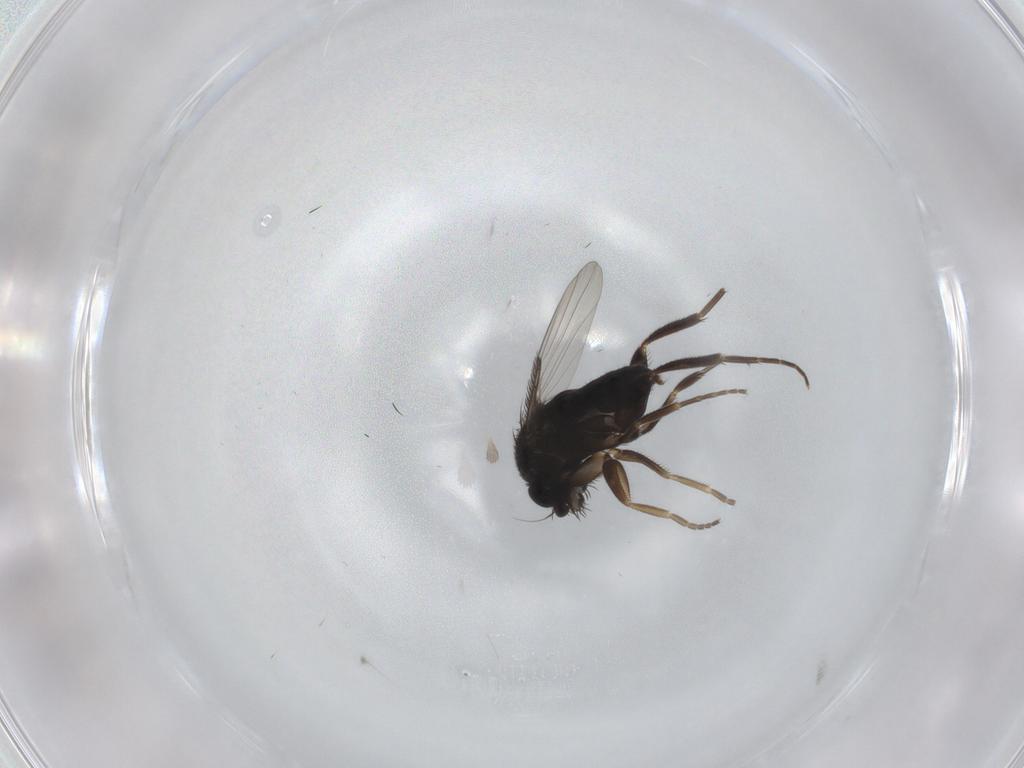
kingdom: Animalia
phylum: Arthropoda
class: Insecta
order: Diptera
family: Phoridae
